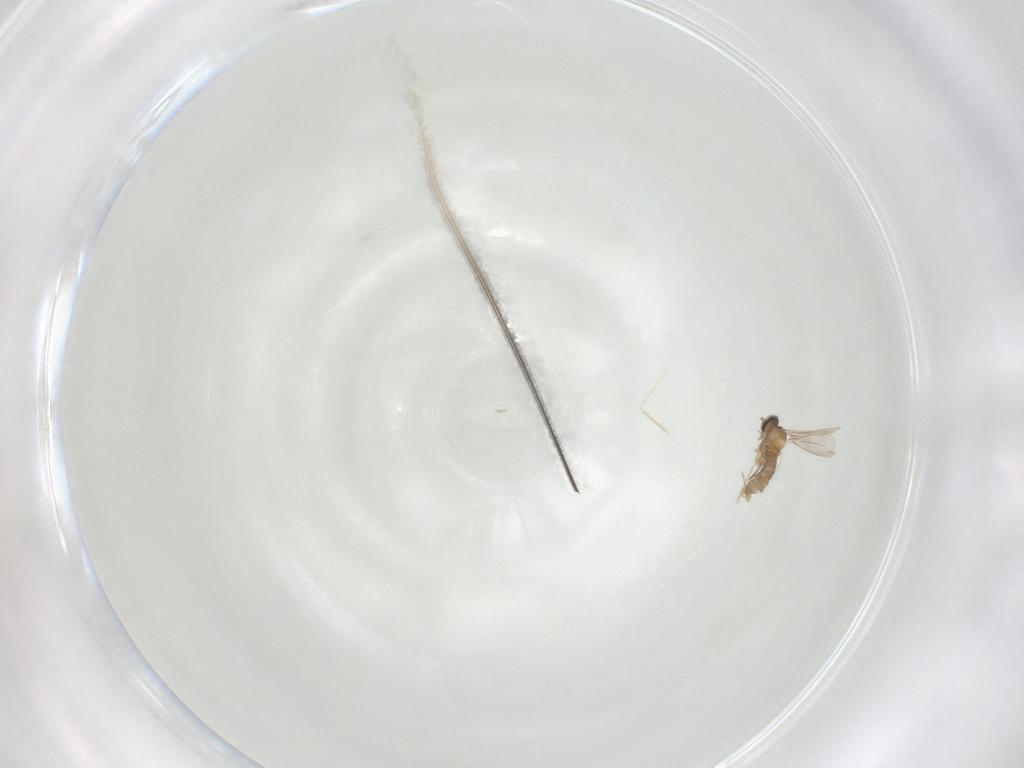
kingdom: Animalia
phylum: Arthropoda
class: Insecta
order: Diptera
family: Cecidomyiidae
